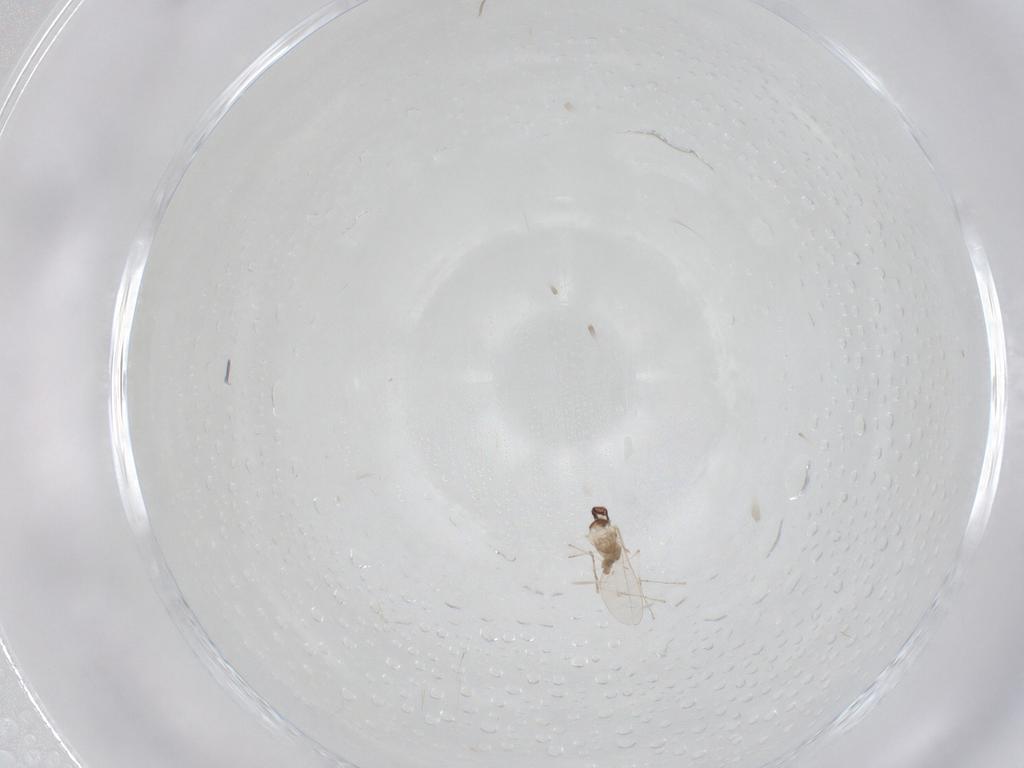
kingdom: Animalia
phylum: Arthropoda
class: Insecta
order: Diptera
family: Cecidomyiidae
